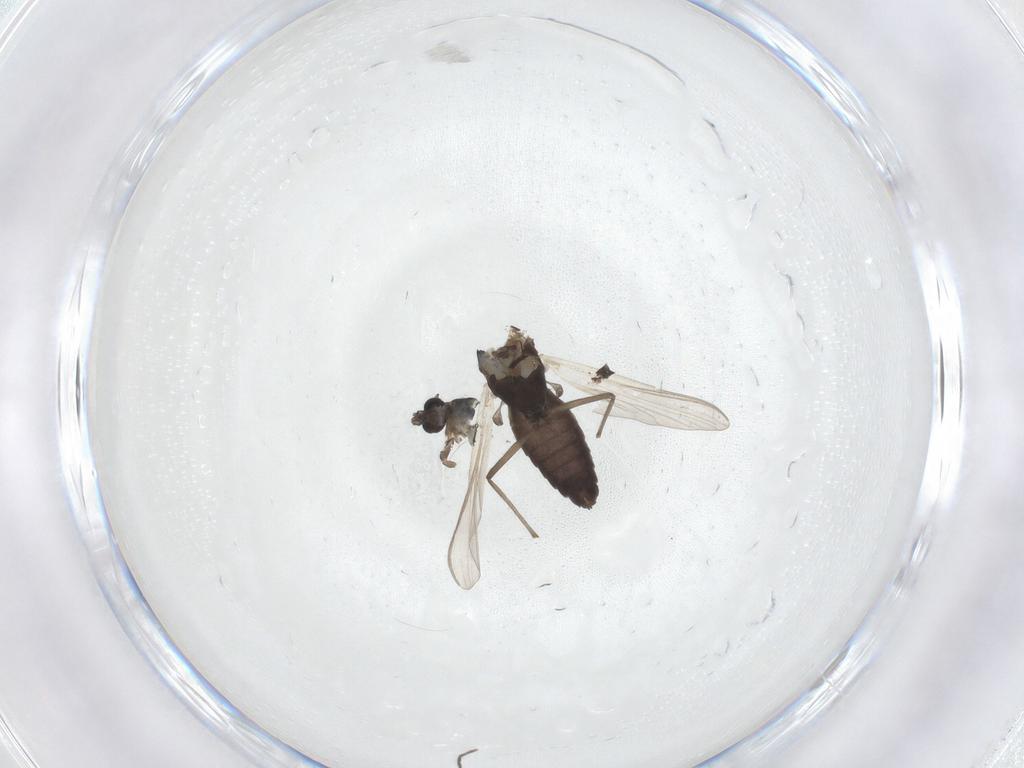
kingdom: Animalia
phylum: Arthropoda
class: Insecta
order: Diptera
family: Chironomidae
